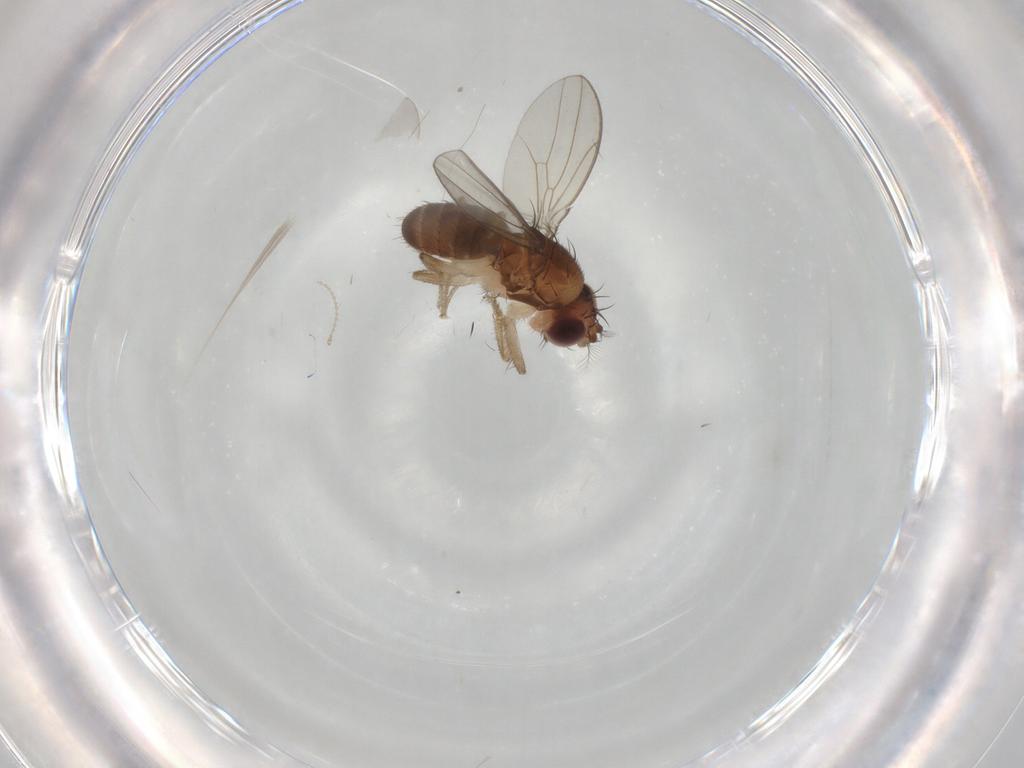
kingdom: Animalia
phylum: Arthropoda
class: Insecta
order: Diptera
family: Drosophilidae
